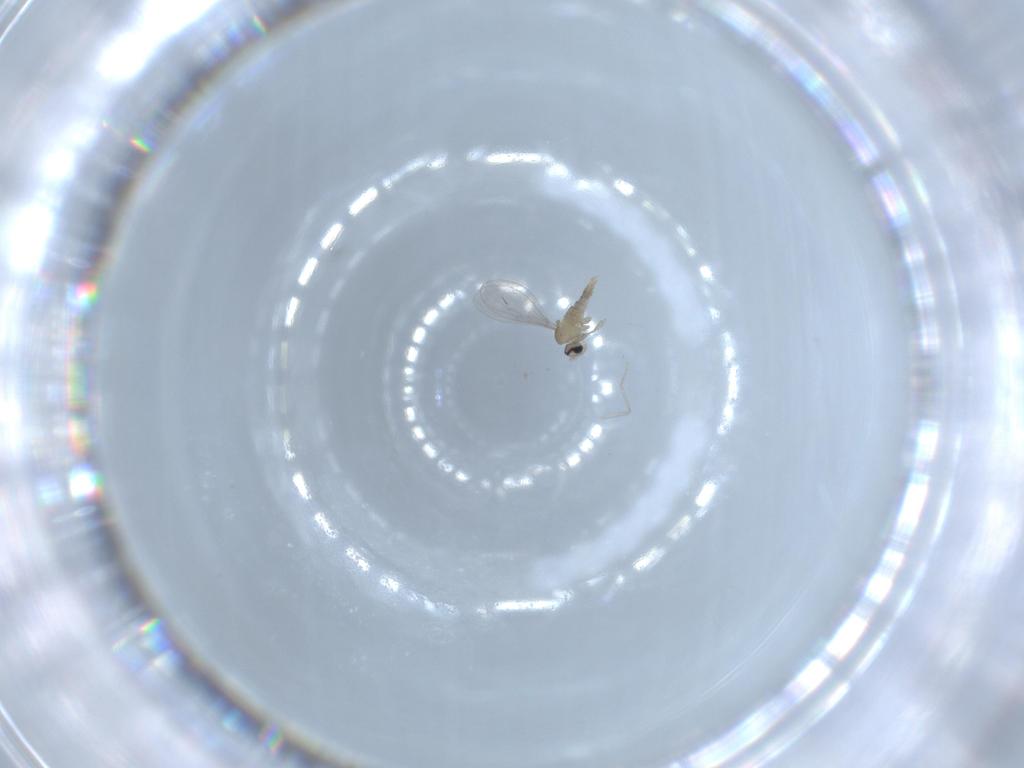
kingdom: Animalia
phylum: Arthropoda
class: Insecta
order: Diptera
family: Cecidomyiidae
